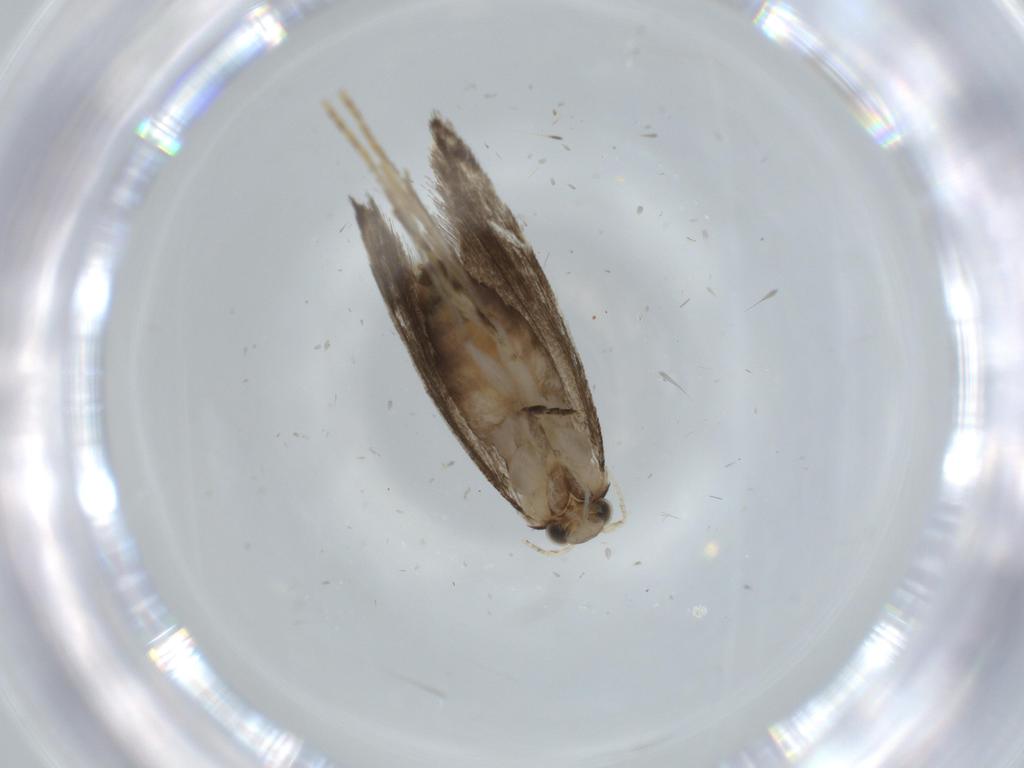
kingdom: Animalia
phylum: Arthropoda
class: Insecta
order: Lepidoptera
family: Tineidae
